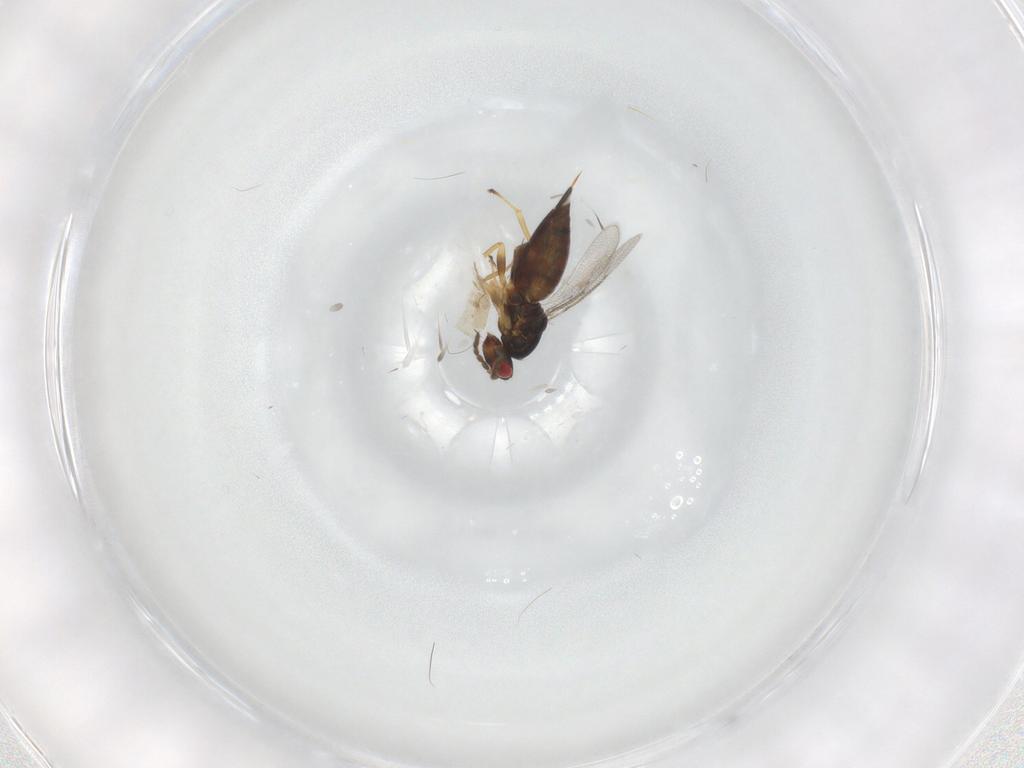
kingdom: Animalia
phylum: Arthropoda
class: Insecta
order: Hymenoptera
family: Eulophidae
